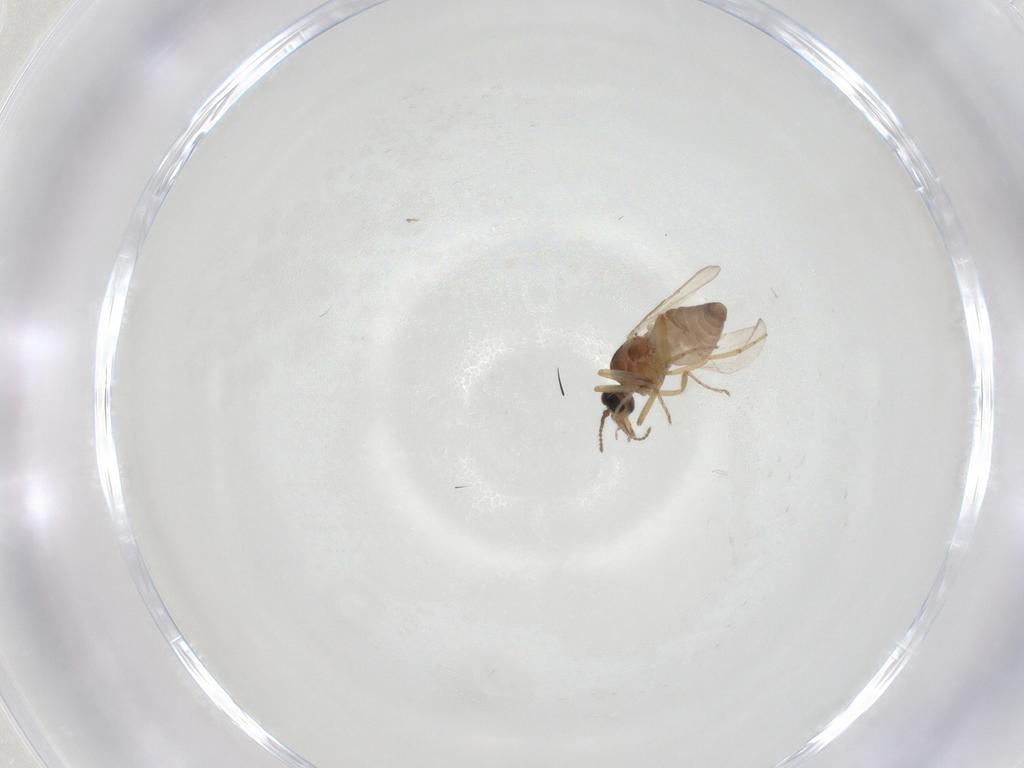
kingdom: Animalia
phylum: Arthropoda
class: Insecta
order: Diptera
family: Ceratopogonidae
